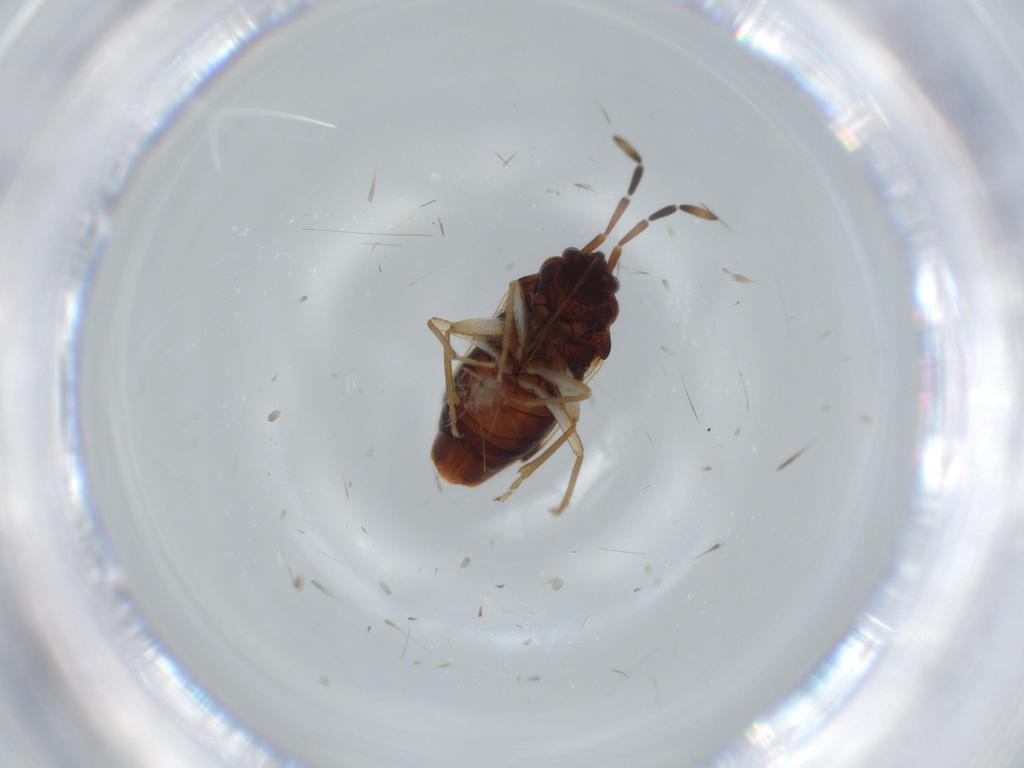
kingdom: Animalia
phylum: Arthropoda
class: Insecta
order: Hemiptera
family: Rhyparochromidae
